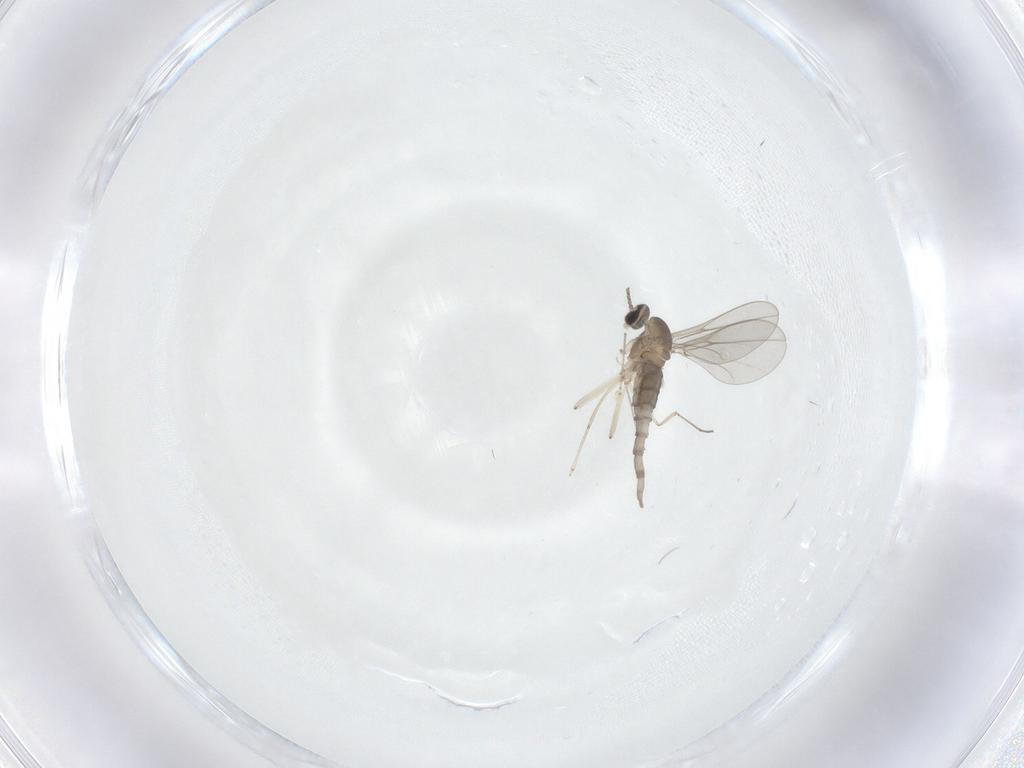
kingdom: Animalia
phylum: Arthropoda
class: Insecta
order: Diptera
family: Cecidomyiidae
